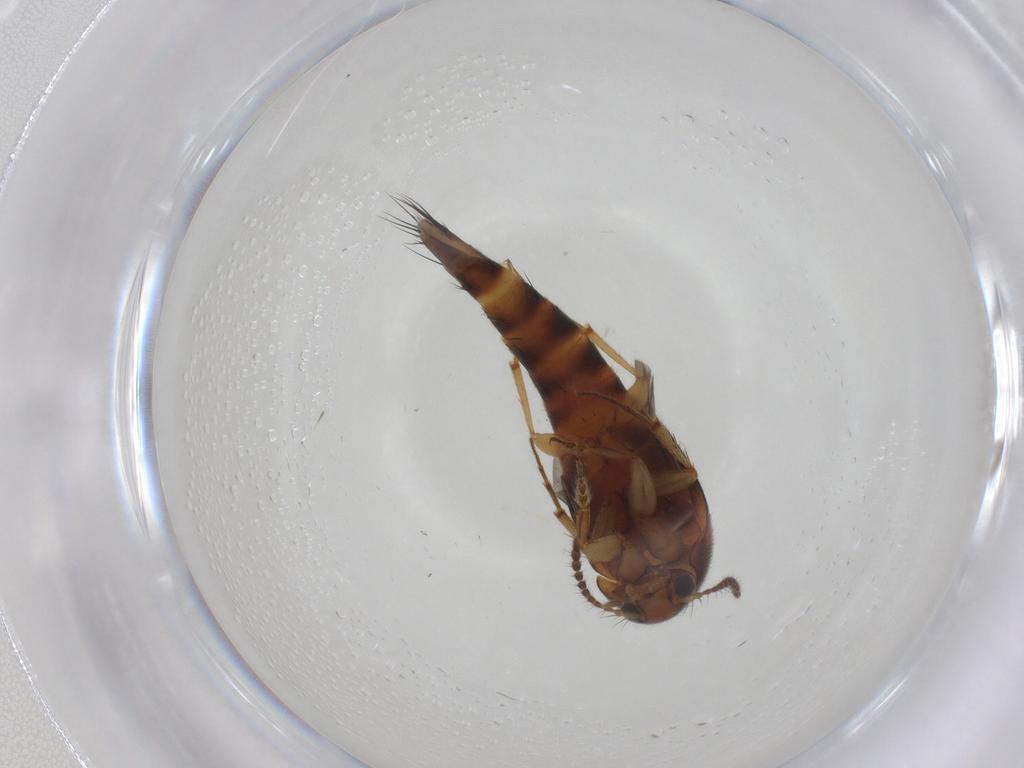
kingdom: Animalia
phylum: Arthropoda
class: Insecta
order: Coleoptera
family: Staphylinidae
